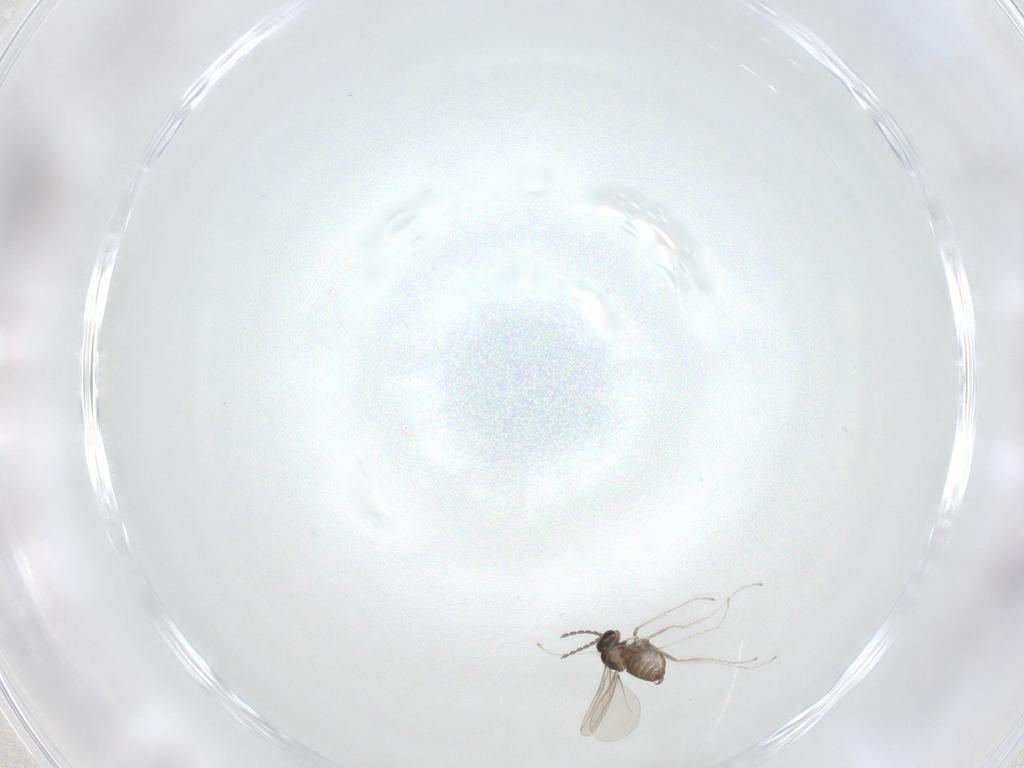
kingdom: Animalia
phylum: Arthropoda
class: Insecta
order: Diptera
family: Cecidomyiidae
